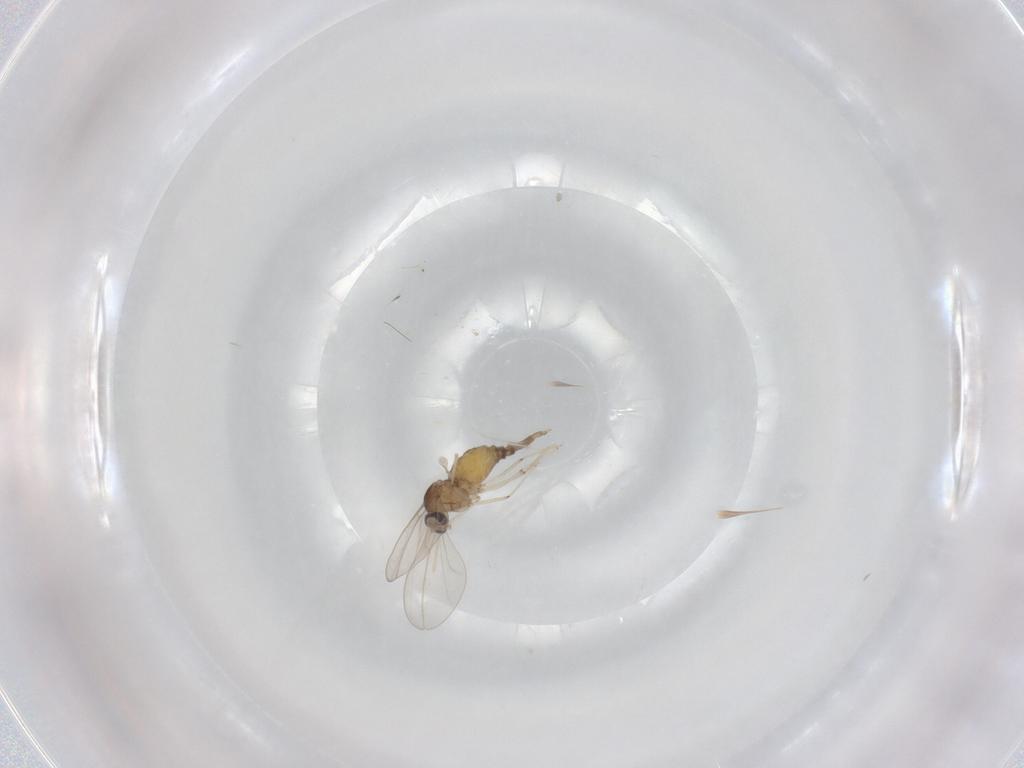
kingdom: Animalia
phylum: Arthropoda
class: Insecta
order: Diptera
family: Cecidomyiidae
